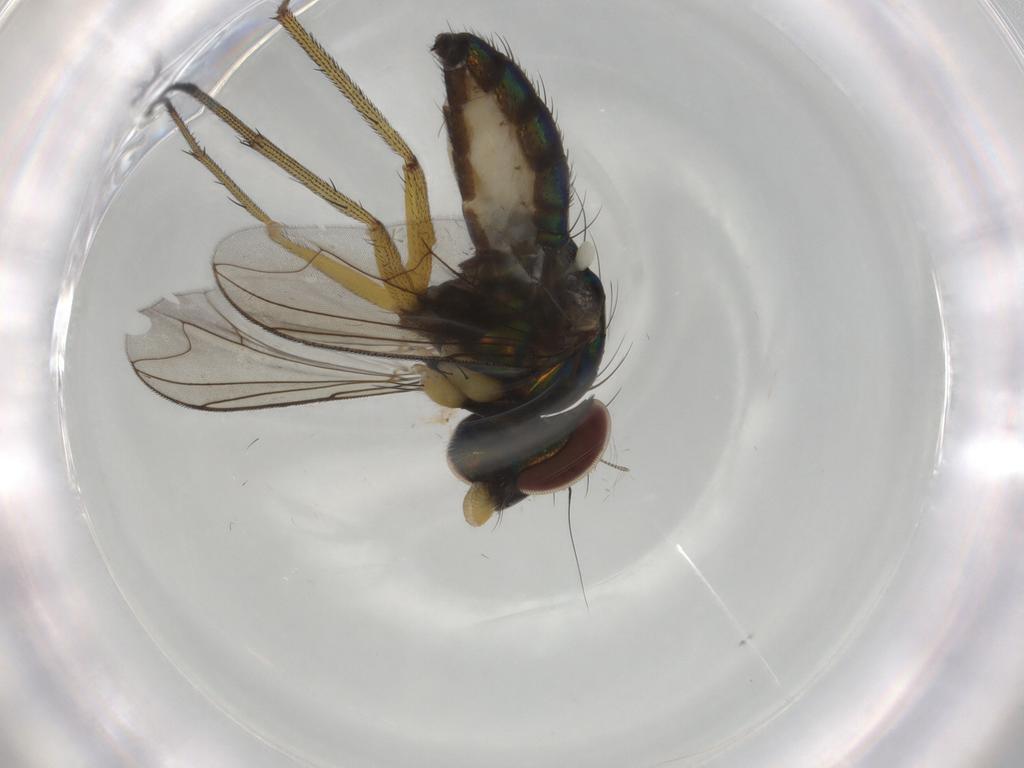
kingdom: Animalia
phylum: Arthropoda
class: Insecta
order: Diptera
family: Dolichopodidae
